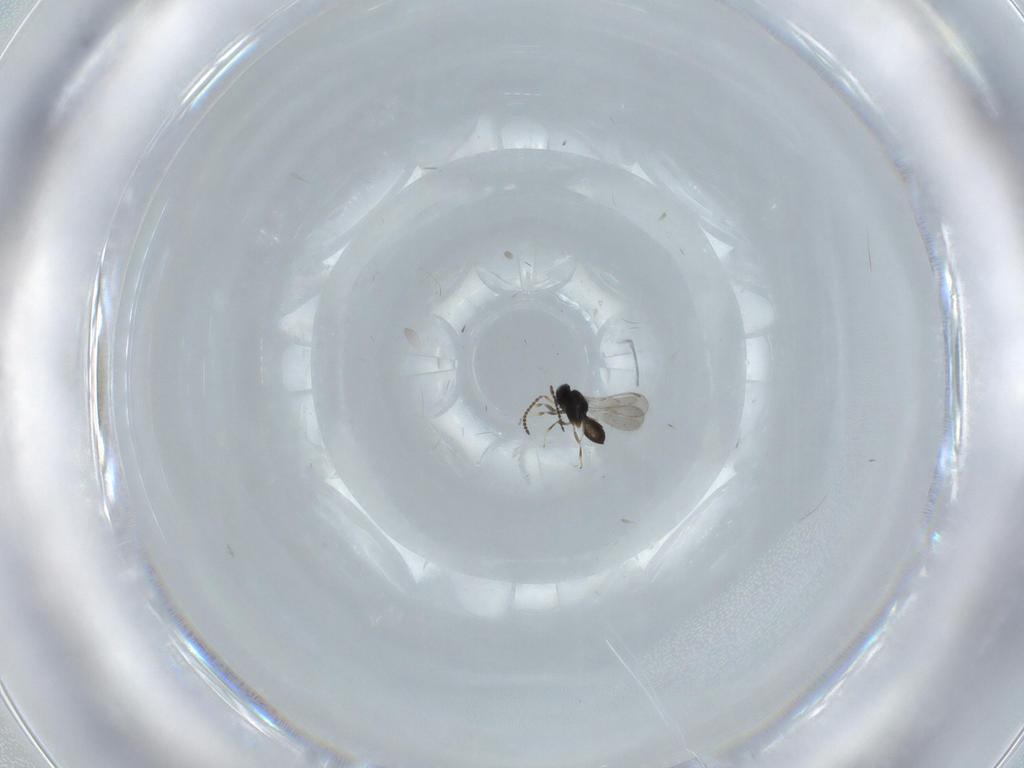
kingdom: Animalia
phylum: Arthropoda
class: Insecta
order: Hymenoptera
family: Scelionidae
